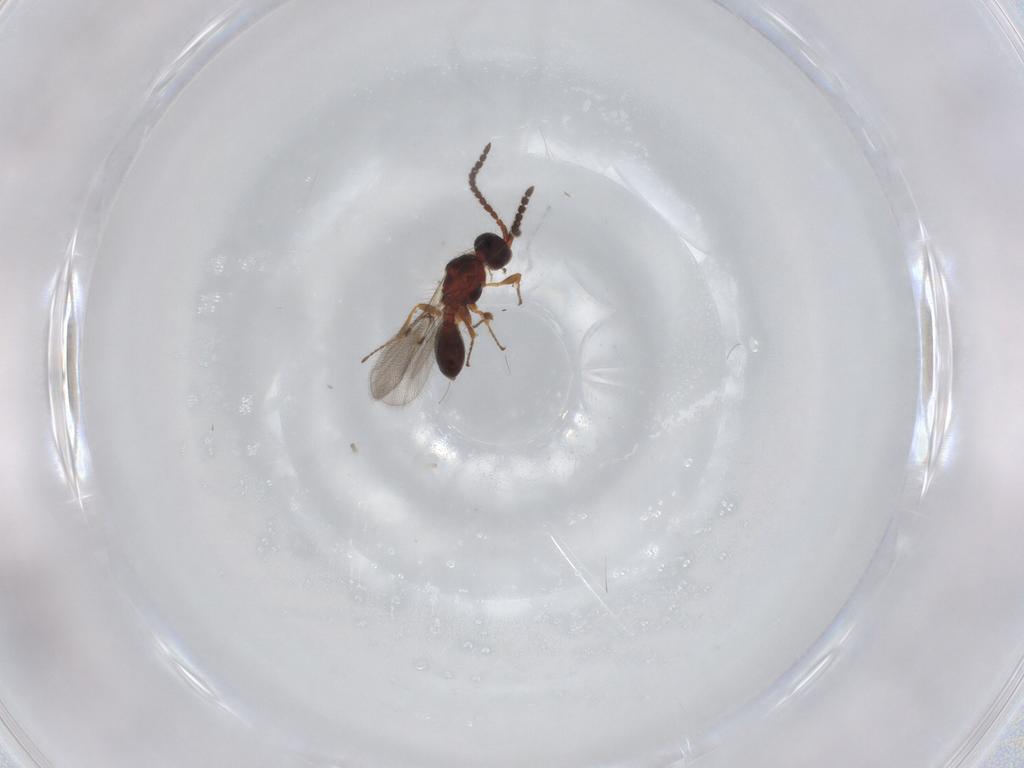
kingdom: Animalia
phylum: Arthropoda
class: Insecta
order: Hymenoptera
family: Diapriidae
